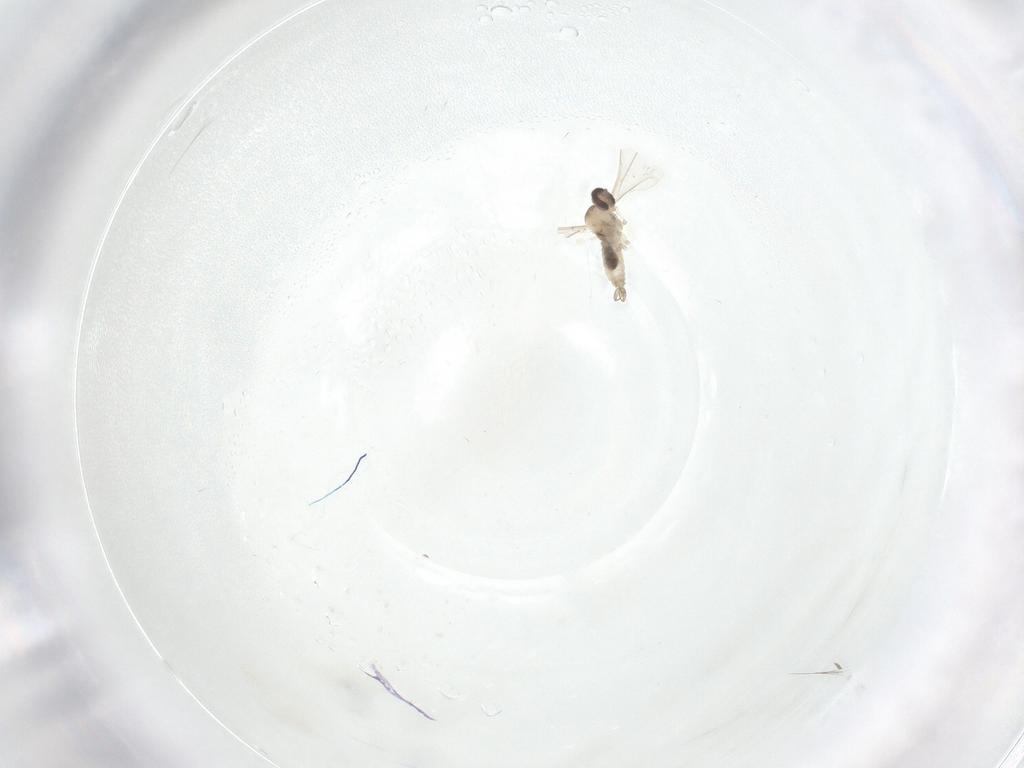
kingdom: Animalia
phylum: Arthropoda
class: Insecta
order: Diptera
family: Cecidomyiidae
